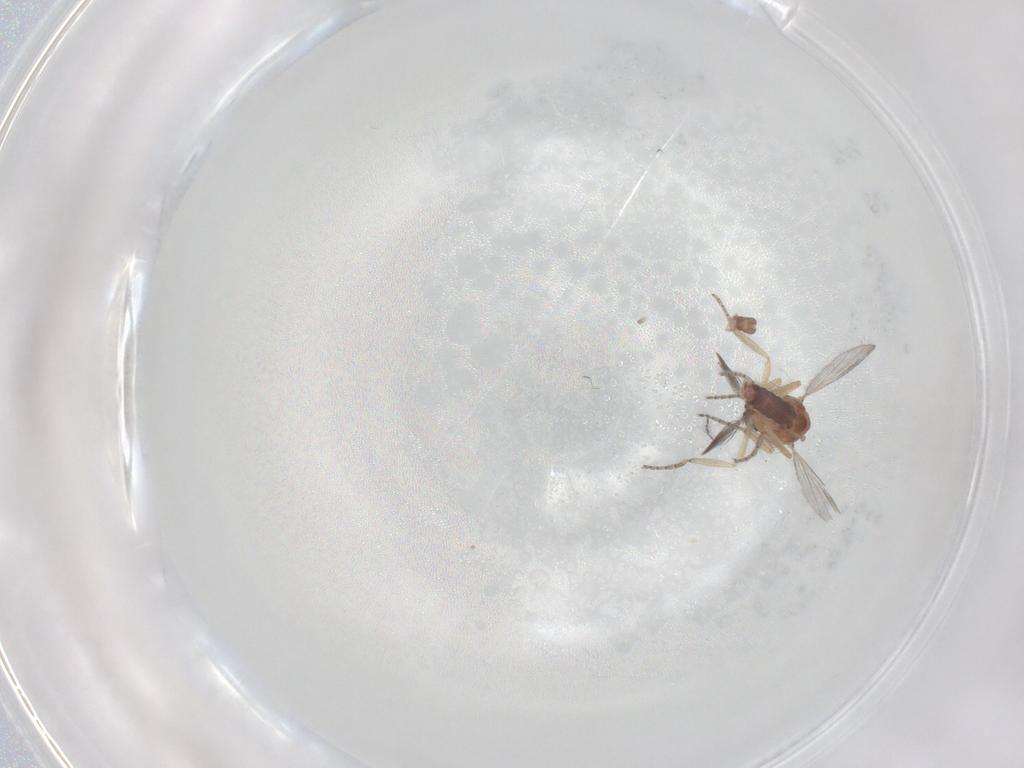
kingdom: Animalia
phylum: Arthropoda
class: Insecta
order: Diptera
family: Ceratopogonidae
